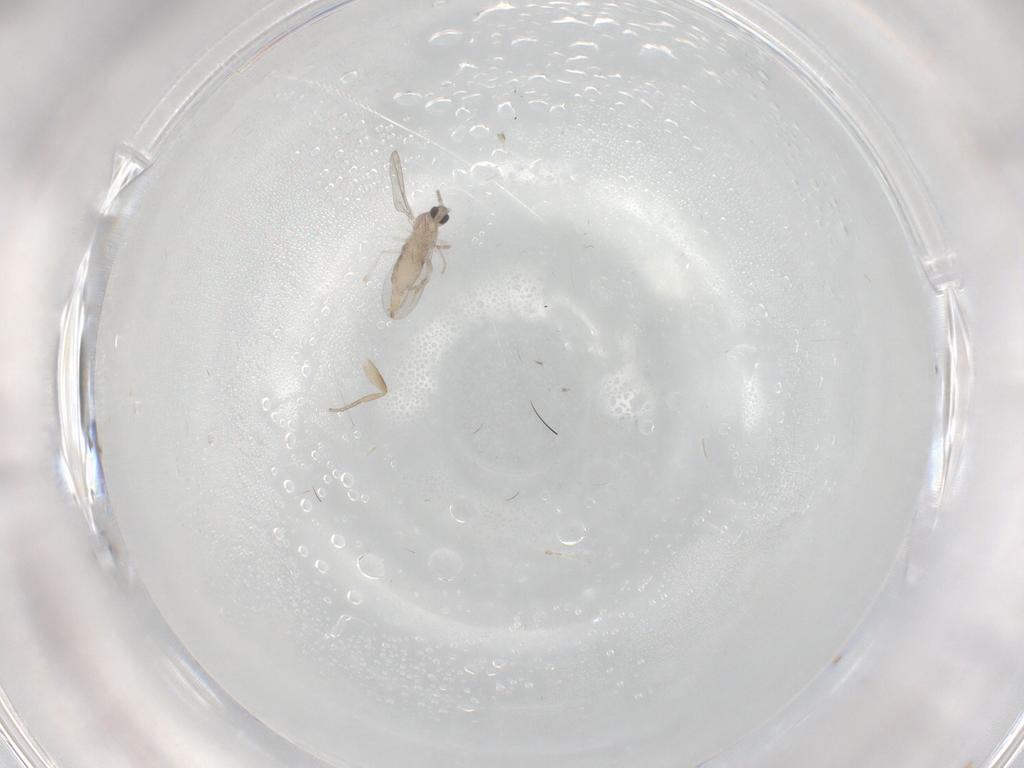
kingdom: Animalia
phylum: Arthropoda
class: Insecta
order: Diptera
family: Cecidomyiidae
